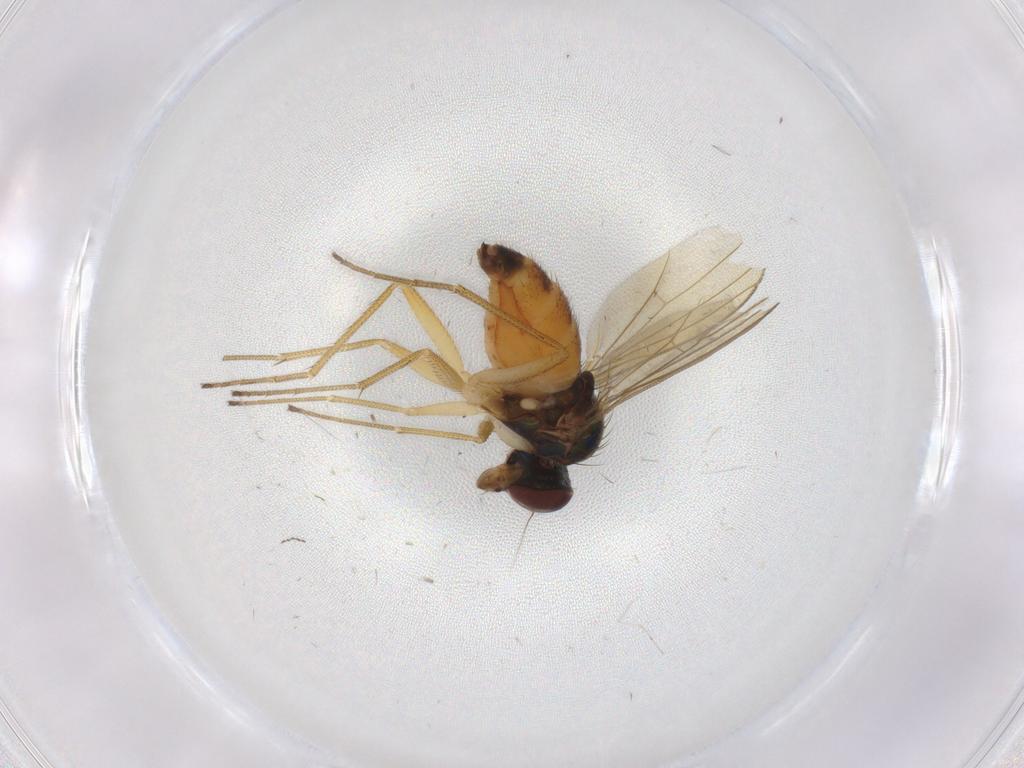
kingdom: Animalia
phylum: Arthropoda
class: Insecta
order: Diptera
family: Dolichopodidae
